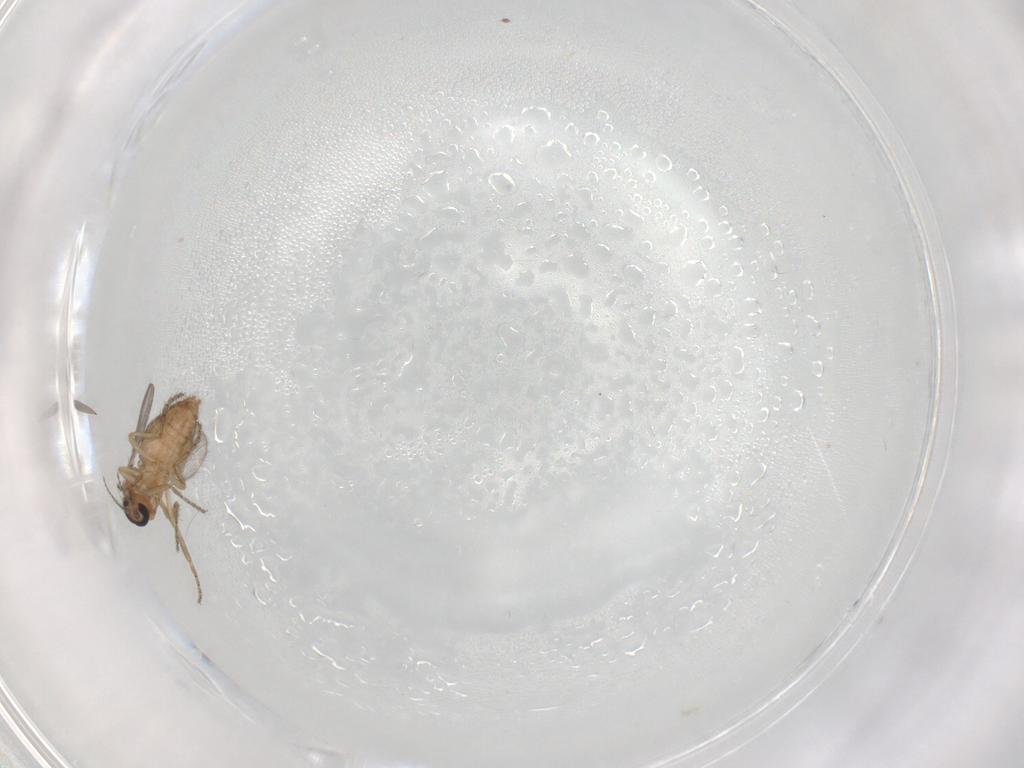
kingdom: Animalia
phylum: Arthropoda
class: Insecta
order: Diptera
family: Ceratopogonidae
